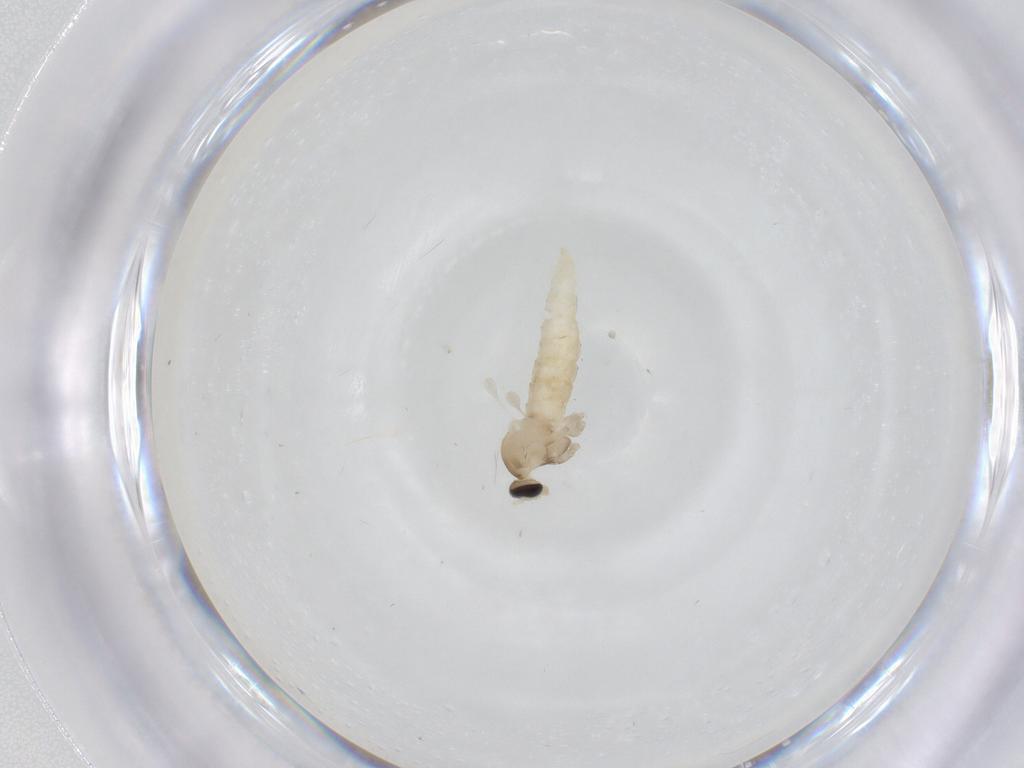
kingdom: Animalia
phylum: Arthropoda
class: Insecta
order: Diptera
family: Cecidomyiidae
